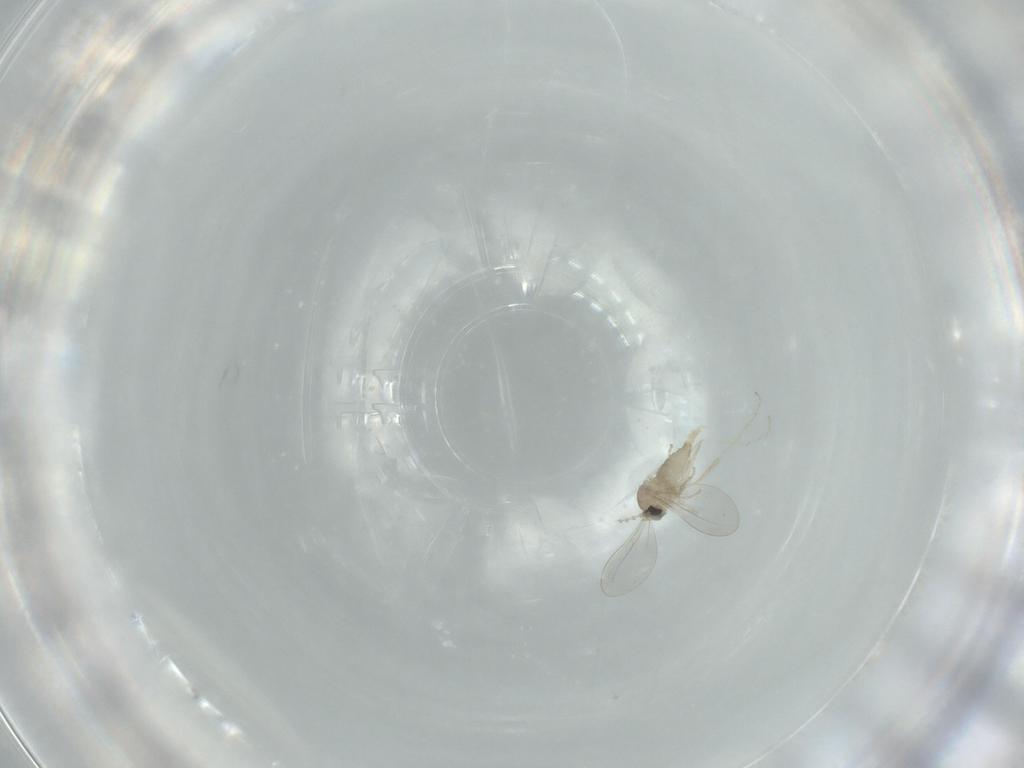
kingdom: Animalia
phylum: Arthropoda
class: Insecta
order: Diptera
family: Cecidomyiidae
